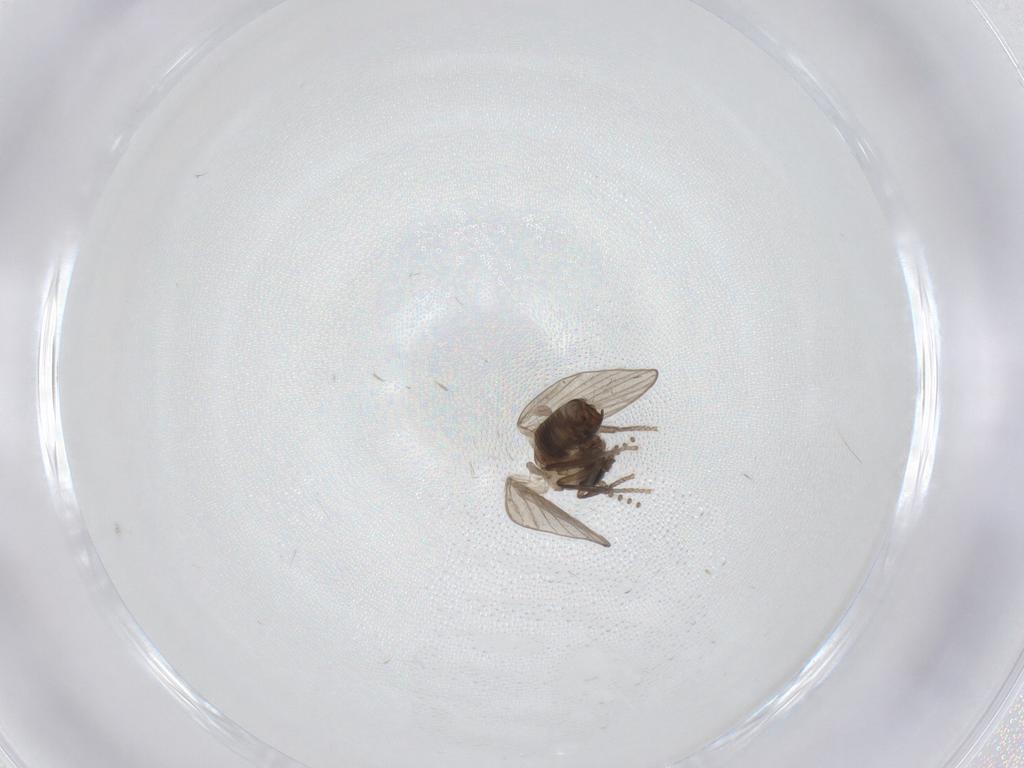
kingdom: Animalia
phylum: Arthropoda
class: Insecta
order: Diptera
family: Psychodidae
